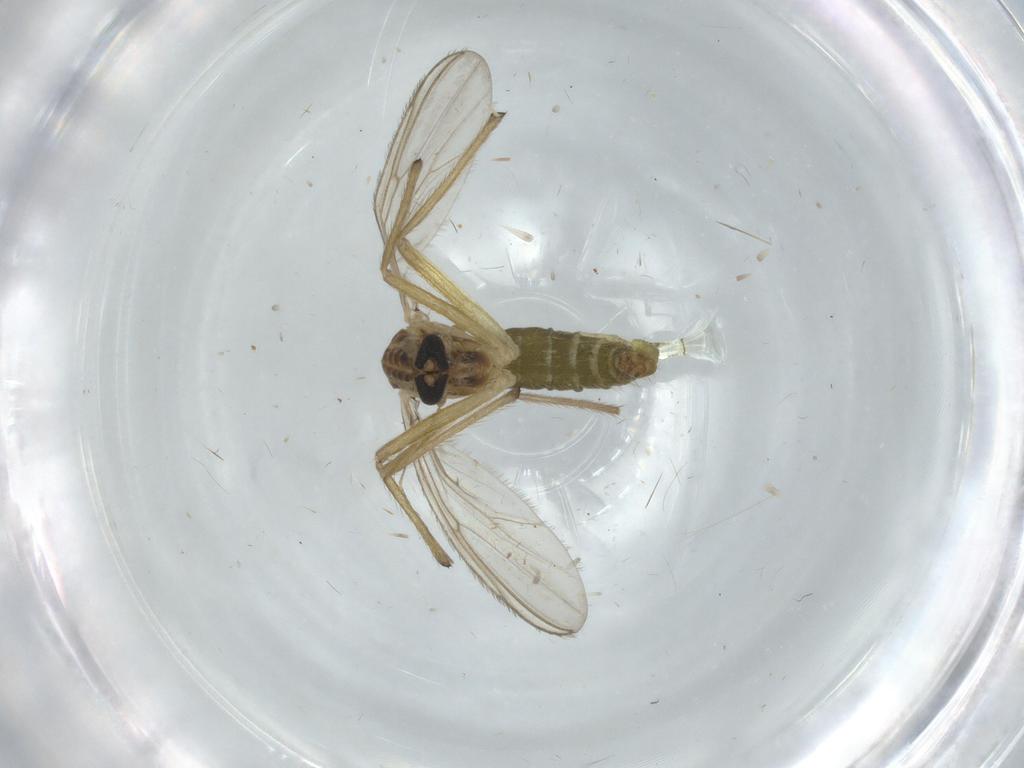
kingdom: Animalia
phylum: Arthropoda
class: Insecta
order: Diptera
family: Chironomidae
